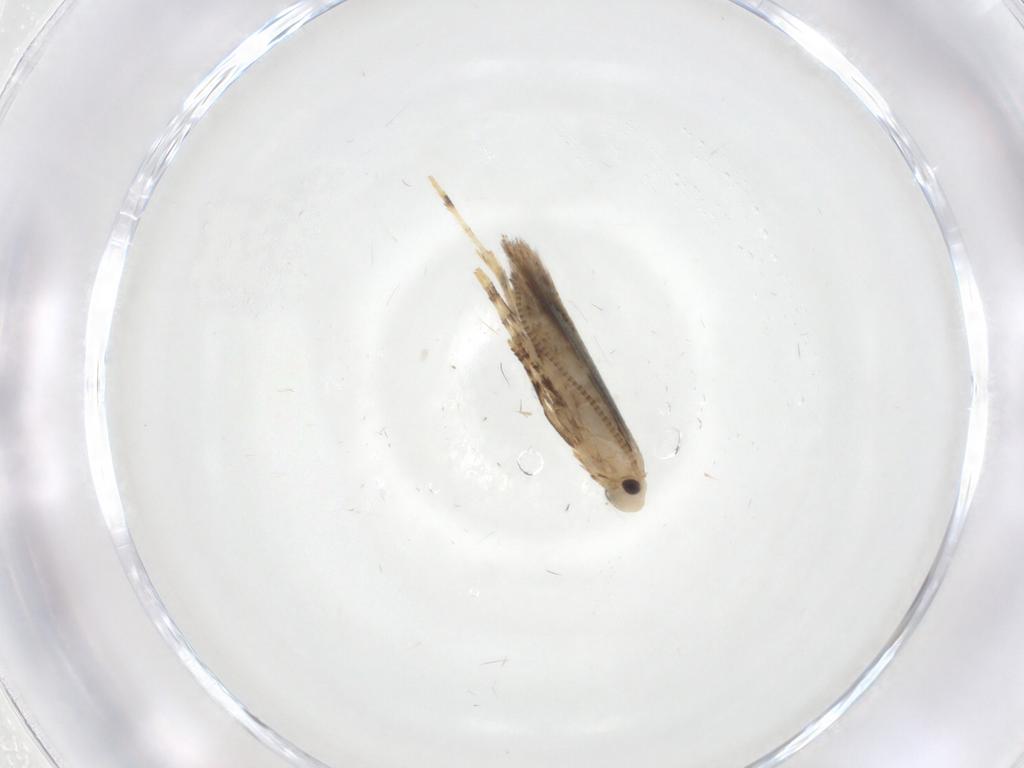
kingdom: Animalia
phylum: Arthropoda
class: Insecta
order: Lepidoptera
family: Gracillariidae
